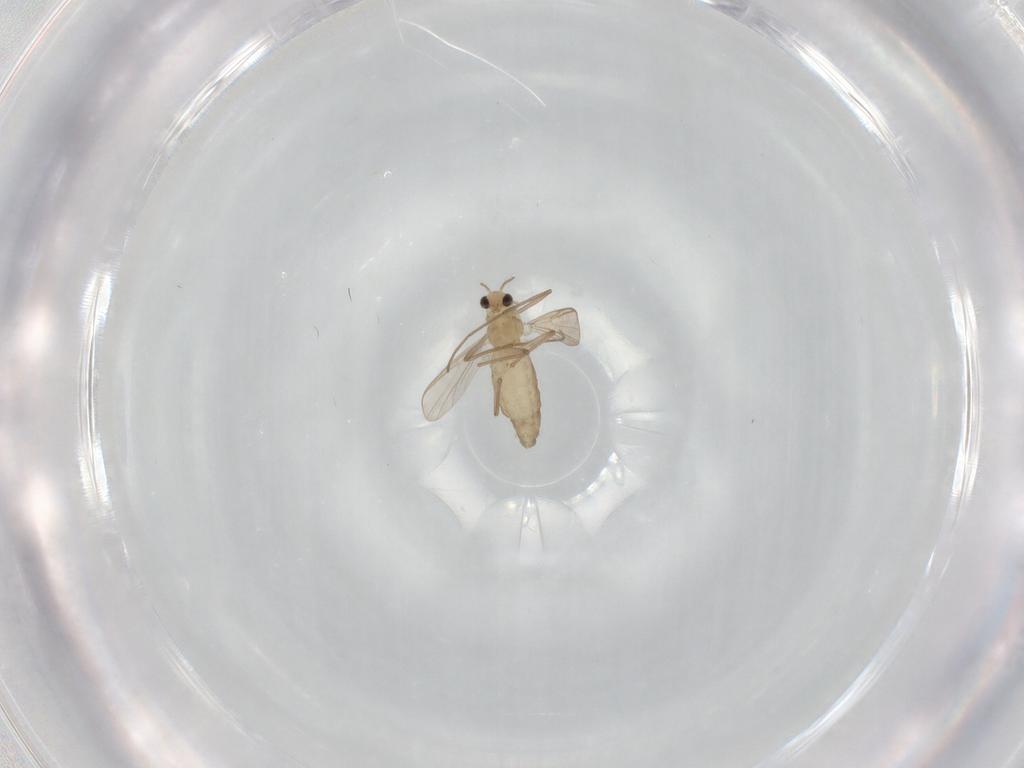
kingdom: Animalia
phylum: Arthropoda
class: Insecta
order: Diptera
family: Chironomidae
